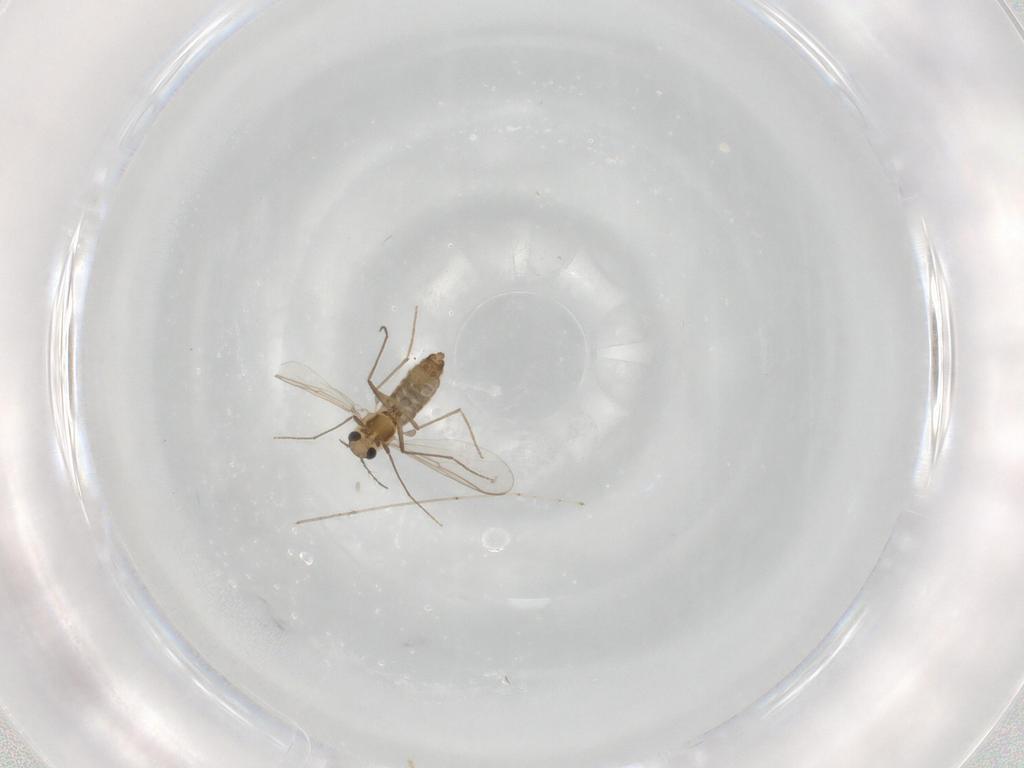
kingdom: Animalia
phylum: Arthropoda
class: Insecta
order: Diptera
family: Chironomidae
